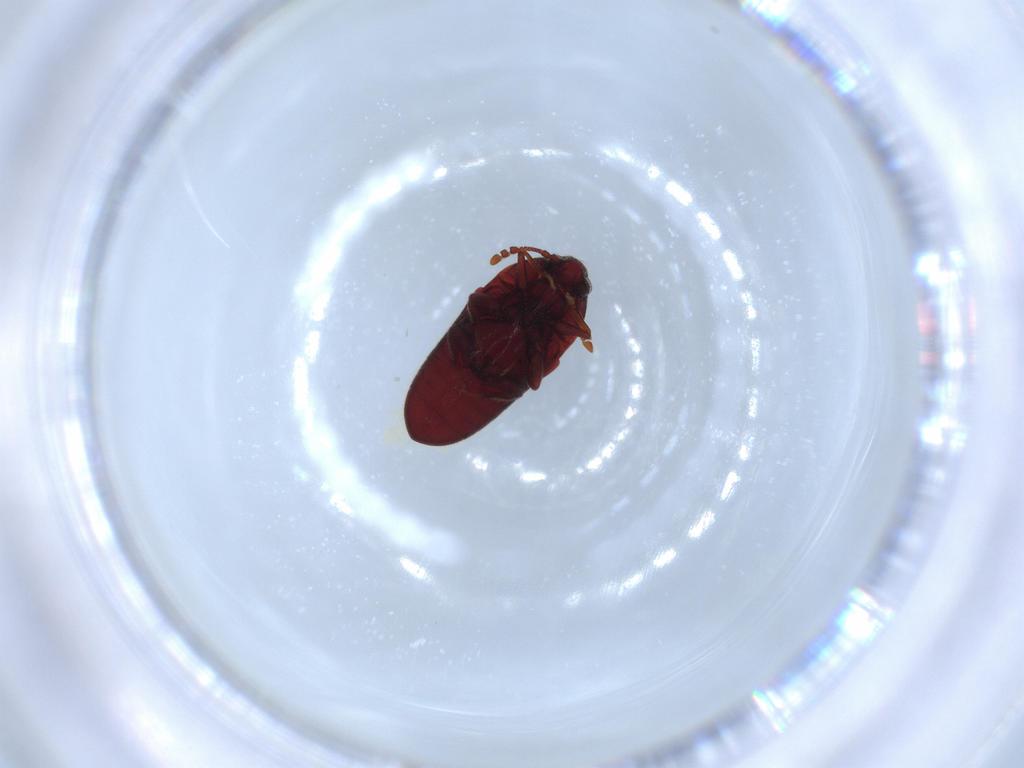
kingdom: Animalia
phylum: Arthropoda
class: Insecta
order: Coleoptera
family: Throscidae
